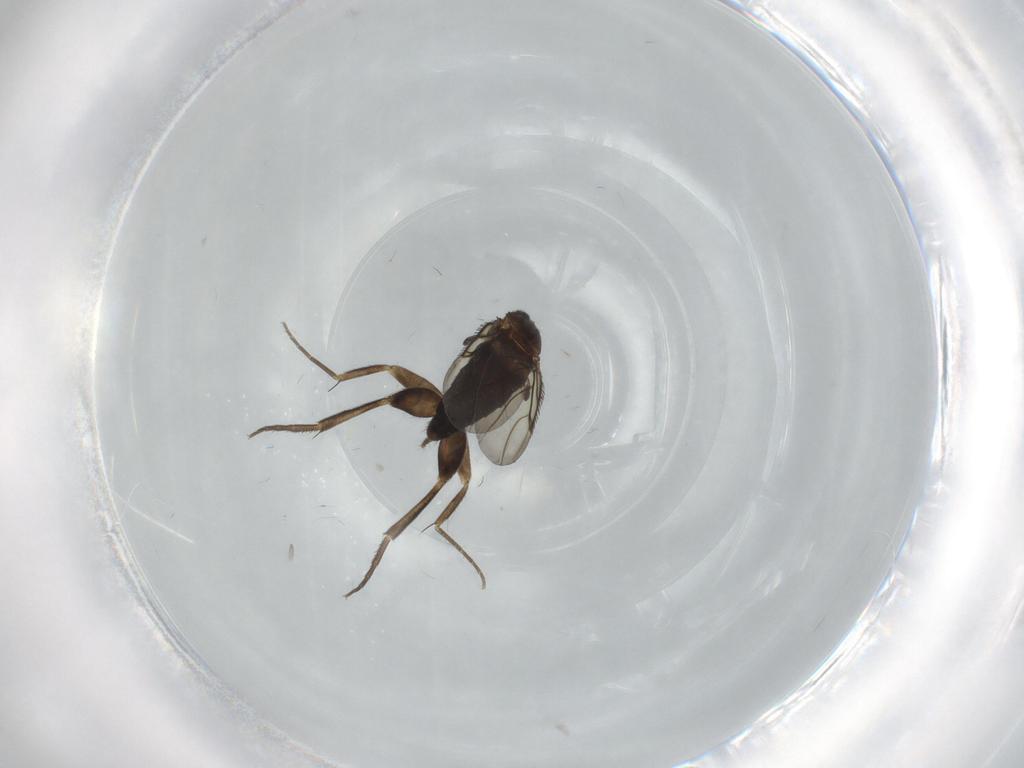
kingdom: Animalia
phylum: Arthropoda
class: Insecta
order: Diptera
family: Phoridae
